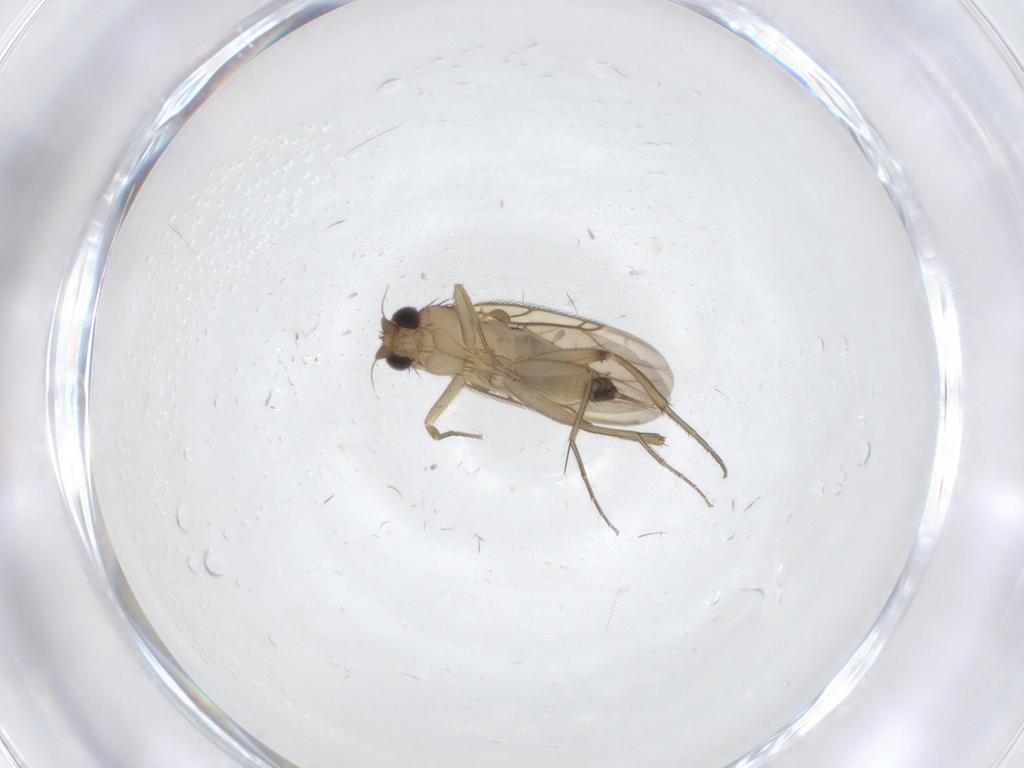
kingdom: Animalia
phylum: Arthropoda
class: Insecta
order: Diptera
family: Phoridae
